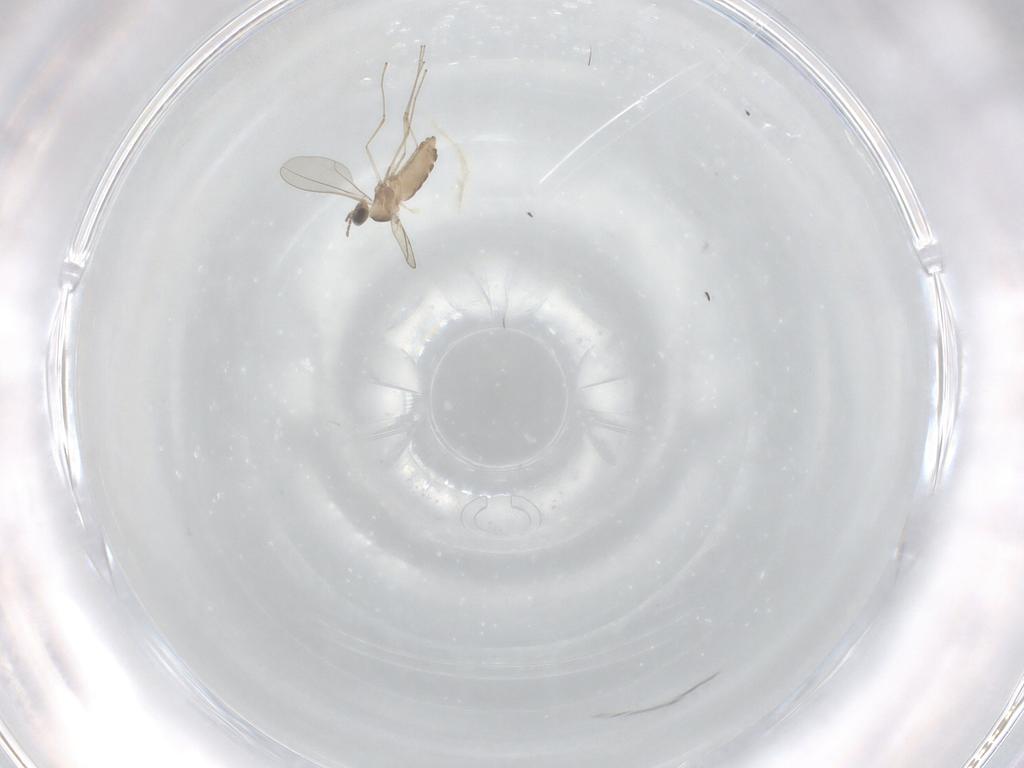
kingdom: Animalia
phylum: Arthropoda
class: Insecta
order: Diptera
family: Cecidomyiidae
